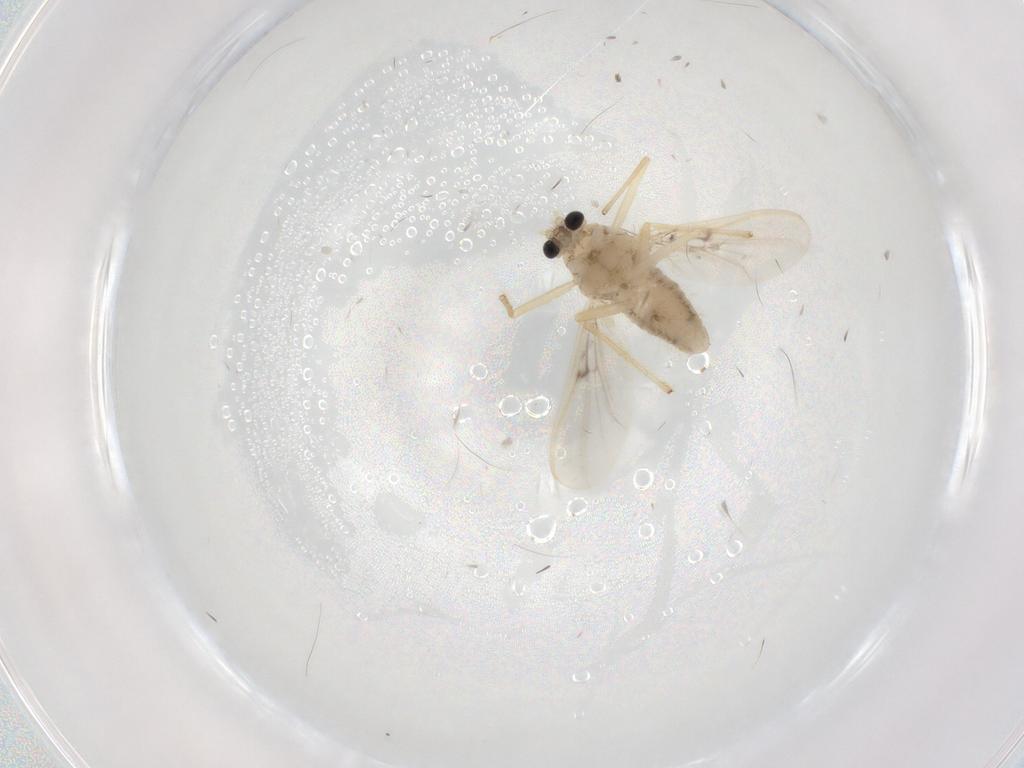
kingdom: Animalia
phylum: Arthropoda
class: Insecta
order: Diptera
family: Chironomidae
